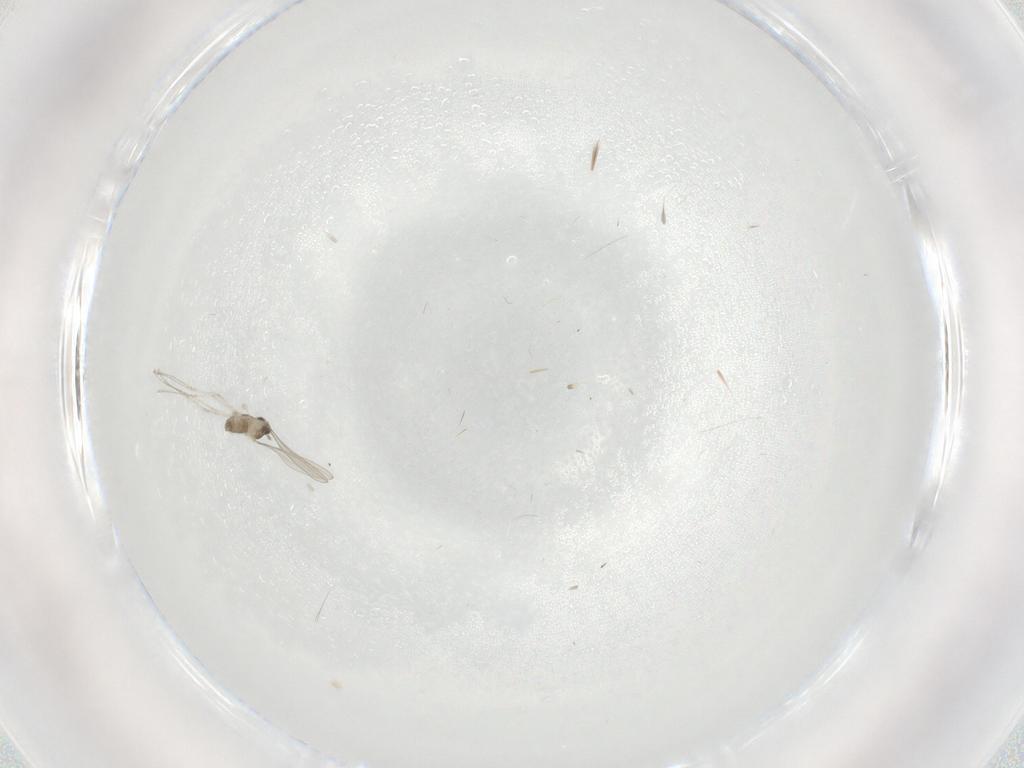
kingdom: Animalia
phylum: Arthropoda
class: Insecta
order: Diptera
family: Cecidomyiidae
